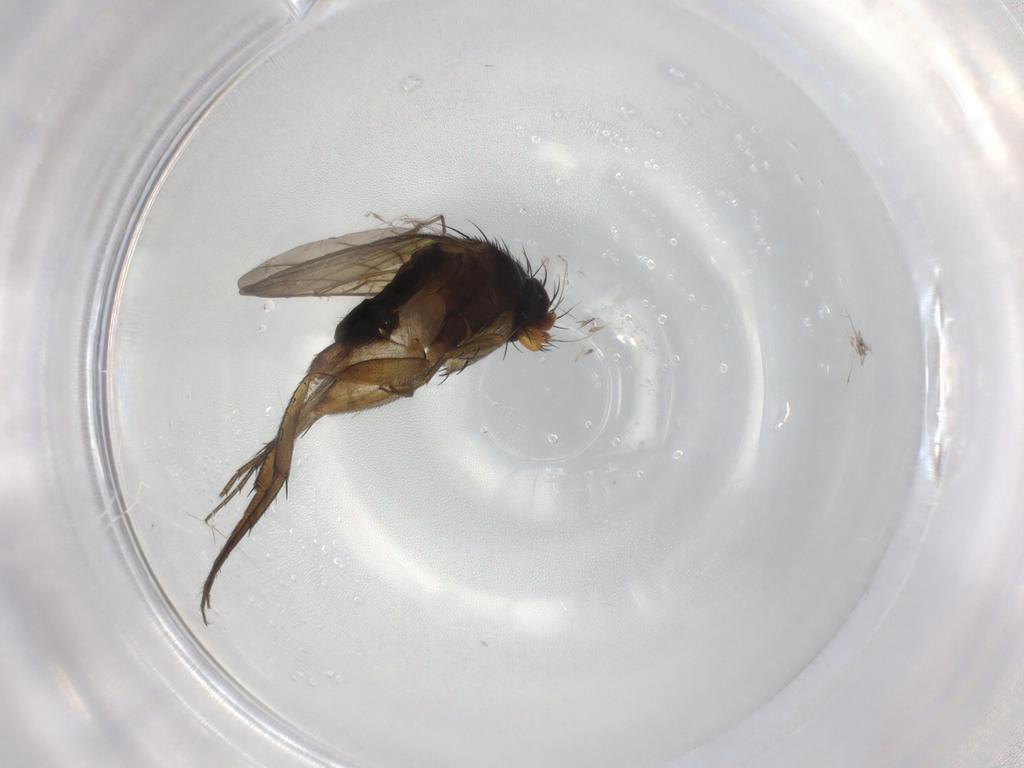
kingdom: Animalia
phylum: Arthropoda
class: Insecta
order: Diptera
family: Phoridae
